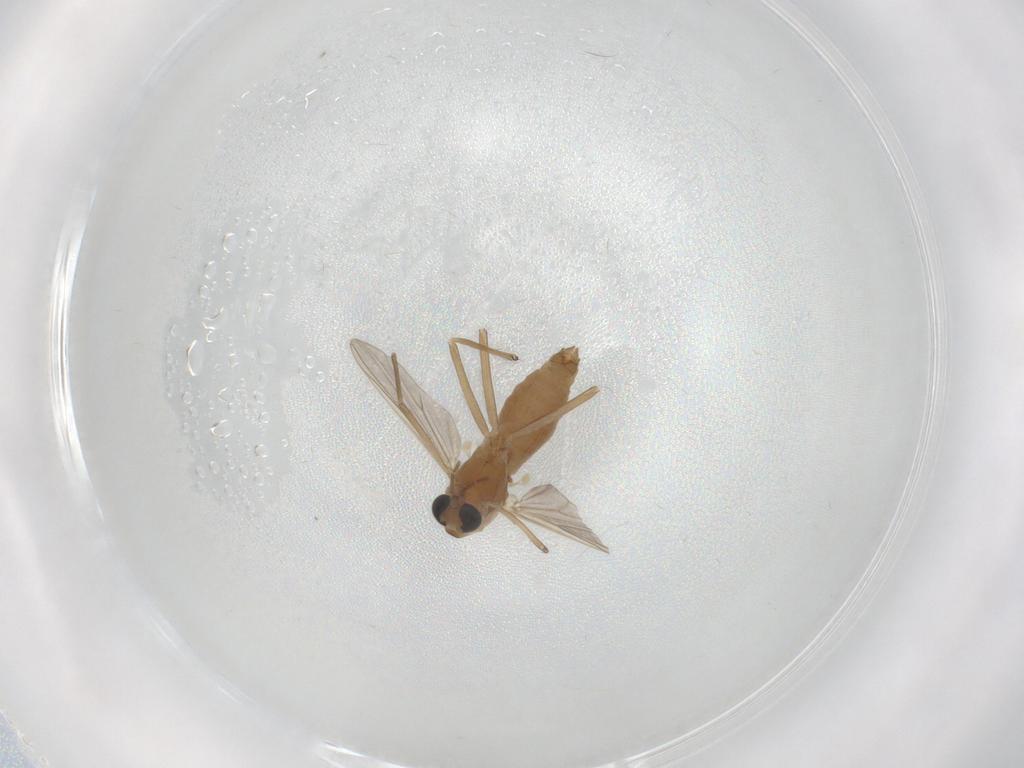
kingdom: Animalia
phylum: Arthropoda
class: Insecta
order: Diptera
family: Chironomidae
